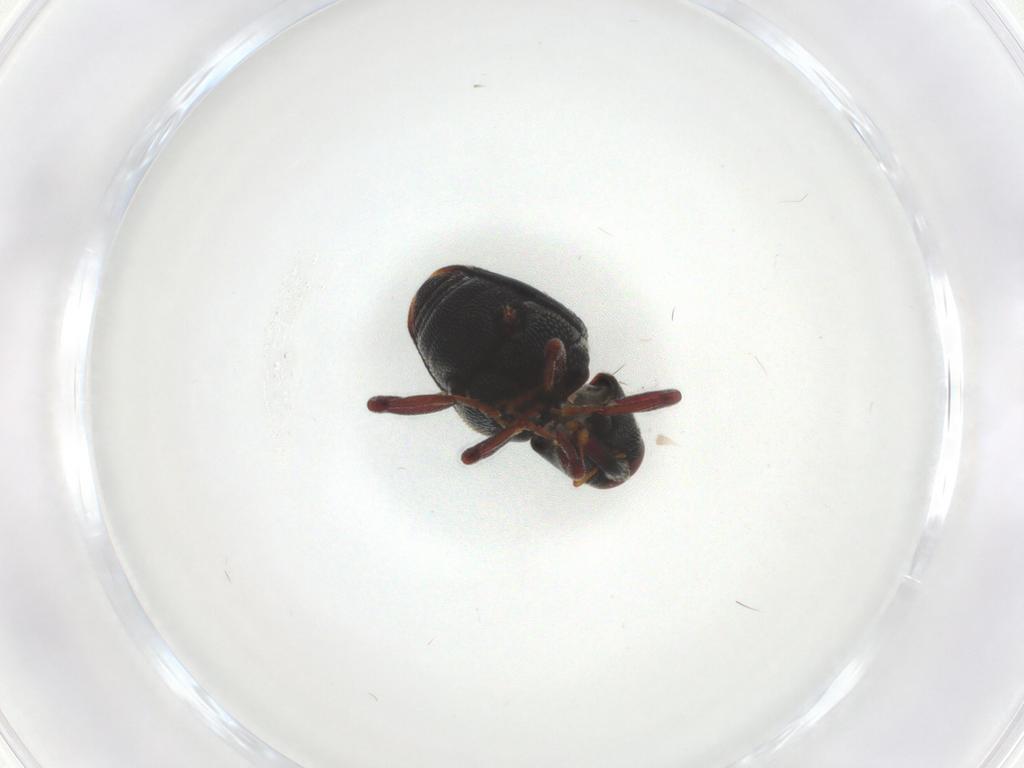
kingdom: Animalia
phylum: Arthropoda
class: Insecta
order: Coleoptera
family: Curculionidae
